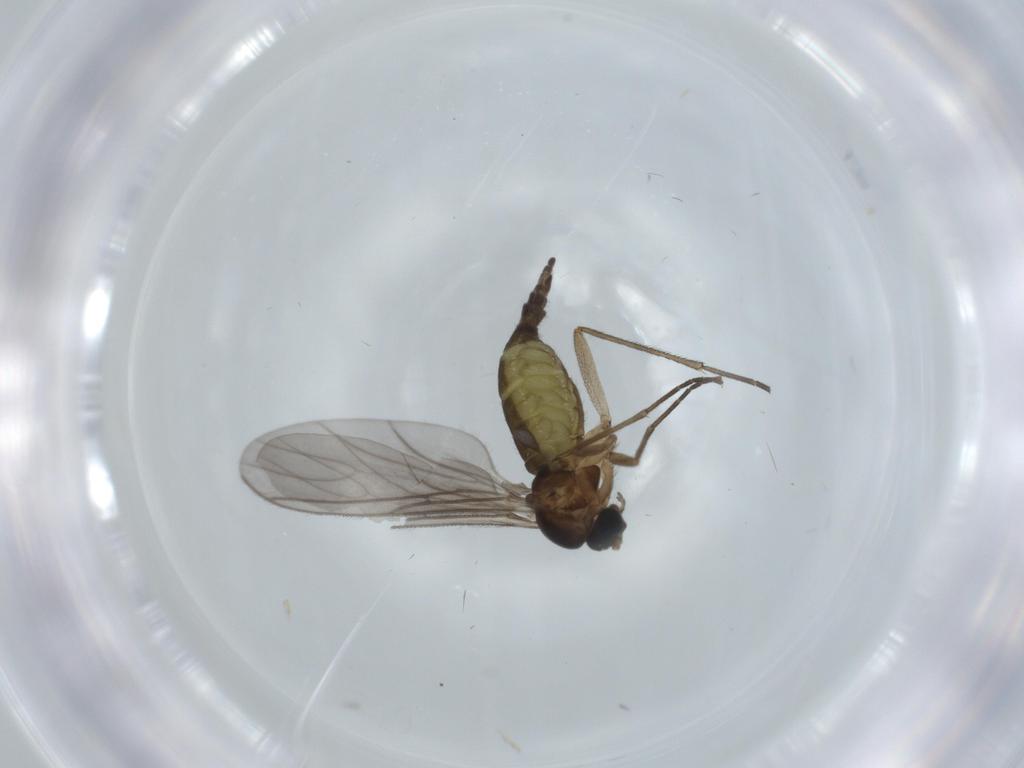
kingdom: Animalia
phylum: Arthropoda
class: Insecta
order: Diptera
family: Sciaridae
